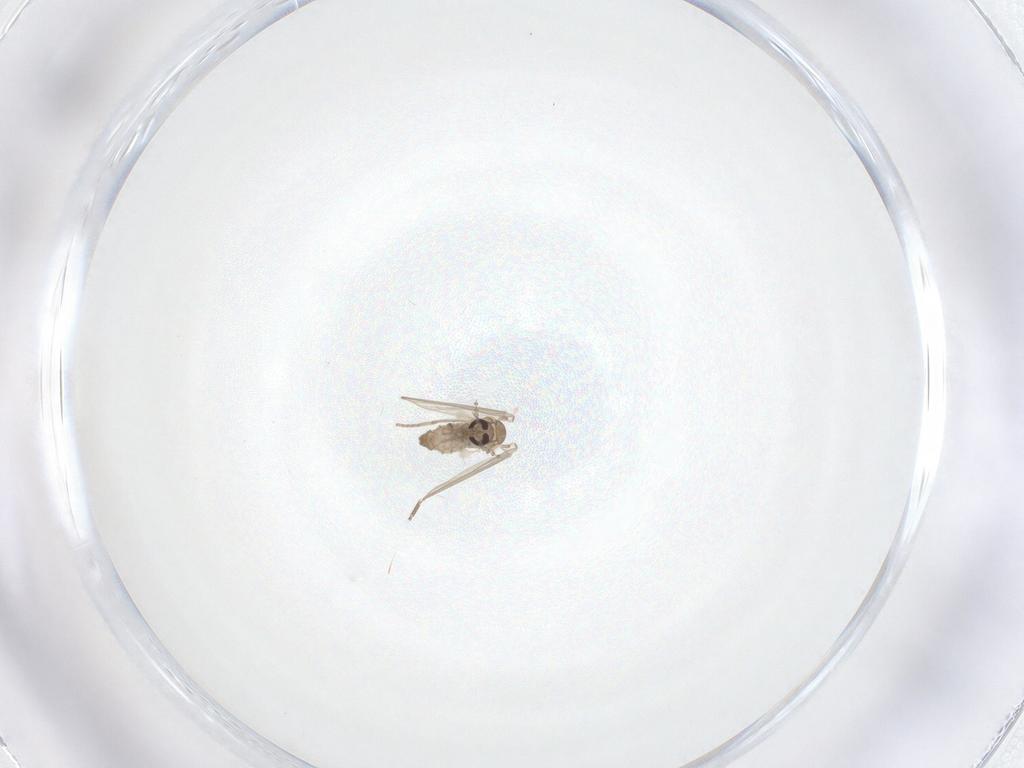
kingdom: Animalia
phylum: Arthropoda
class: Insecta
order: Diptera
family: Psychodidae
